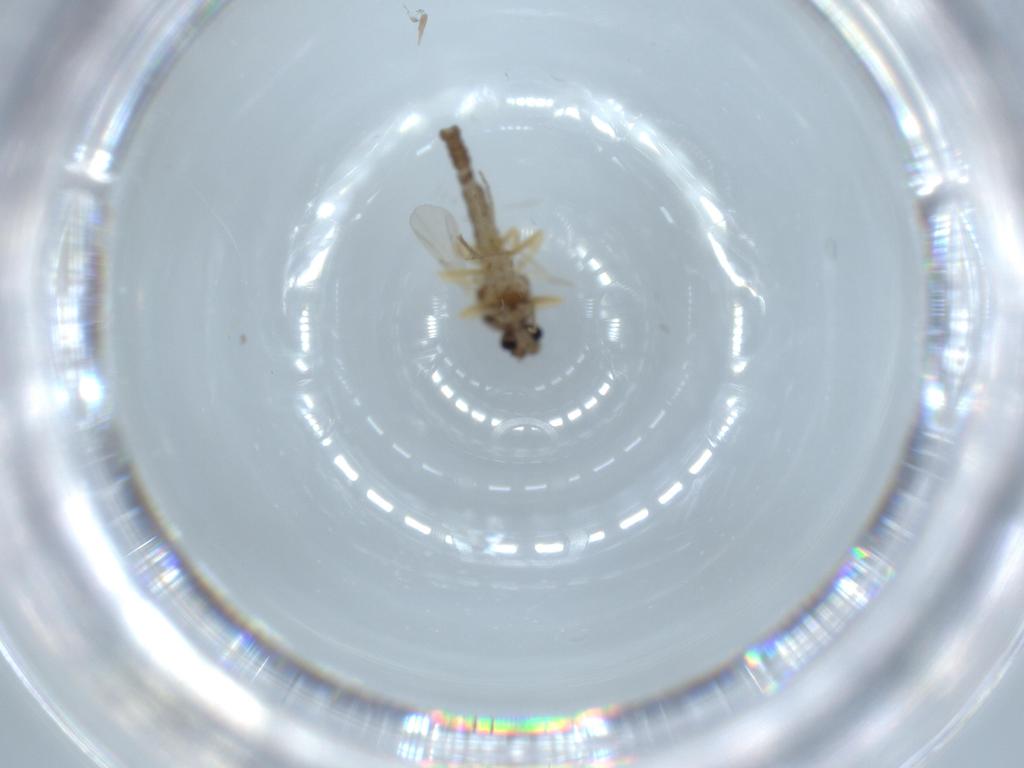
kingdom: Animalia
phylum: Arthropoda
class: Insecta
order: Diptera
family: Ceratopogonidae
